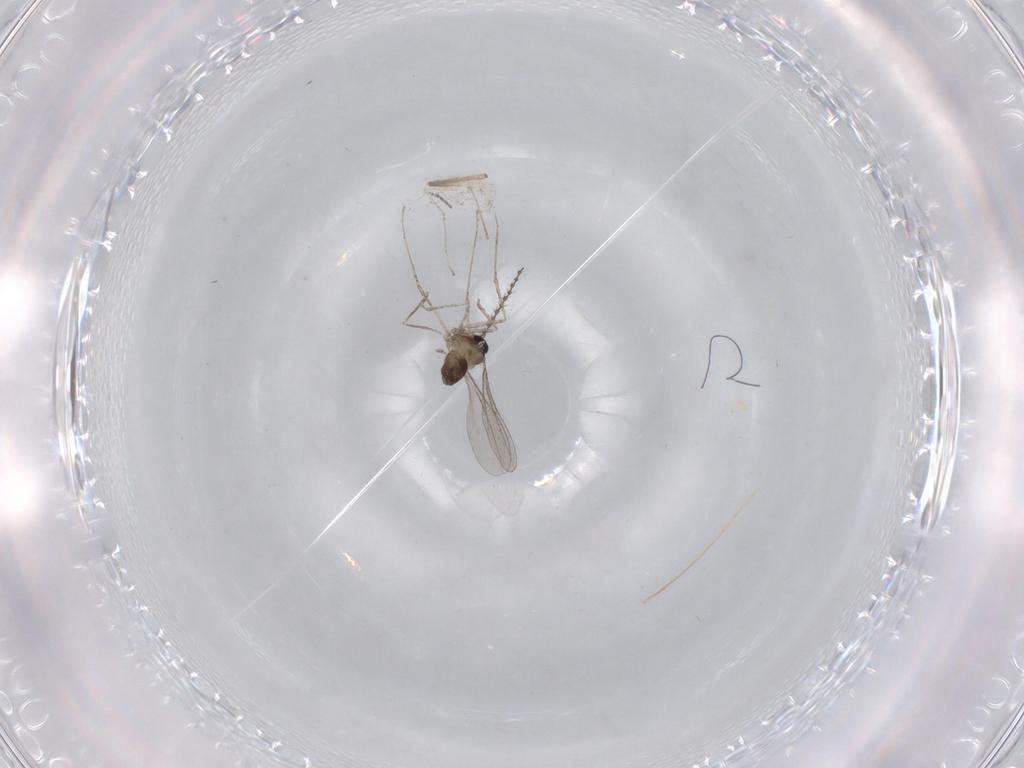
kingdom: Animalia
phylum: Arthropoda
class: Insecta
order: Diptera
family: Cecidomyiidae
